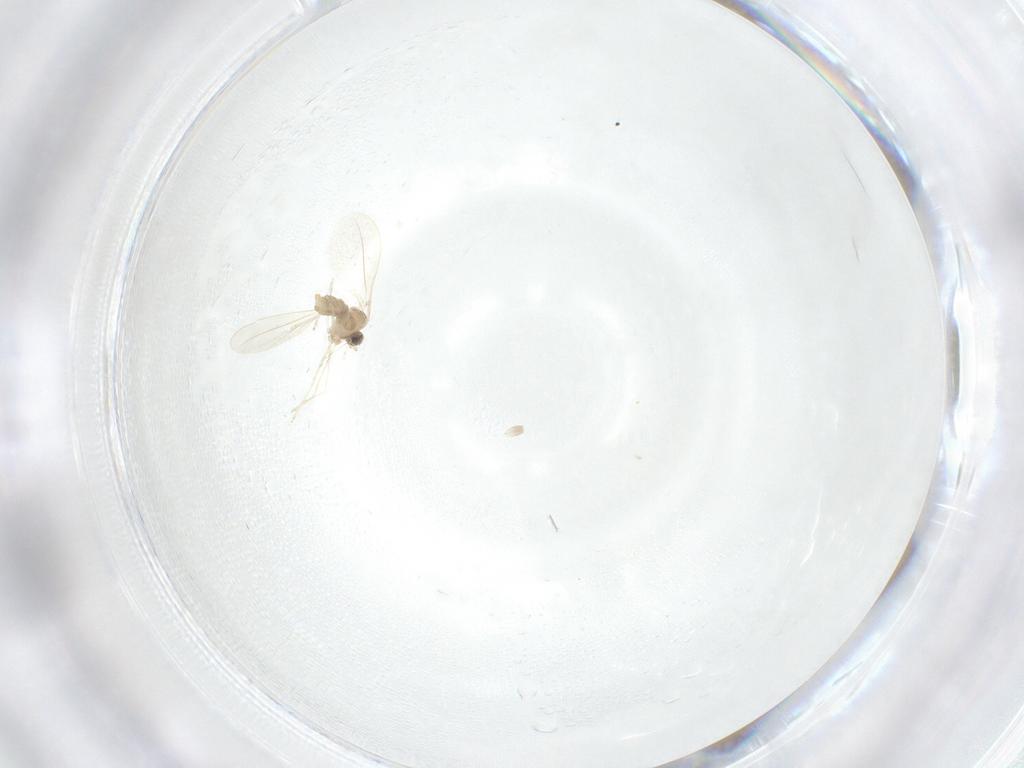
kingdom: Animalia
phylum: Arthropoda
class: Insecta
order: Diptera
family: Cecidomyiidae
